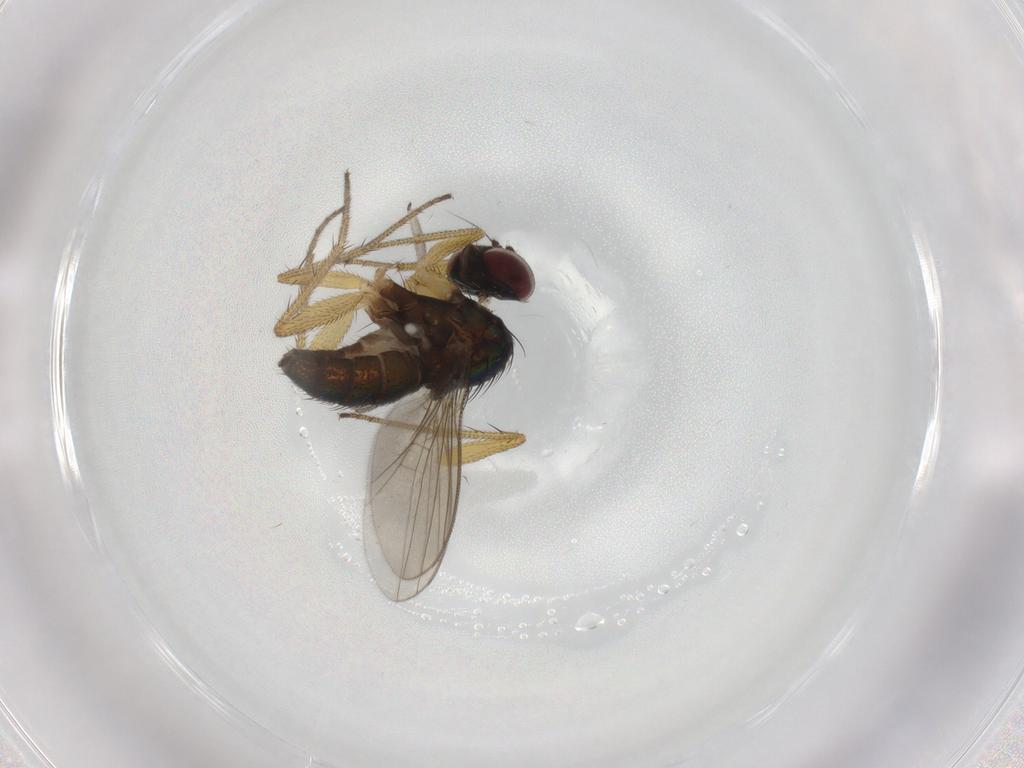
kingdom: Animalia
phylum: Arthropoda
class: Insecta
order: Diptera
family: Sciaridae
